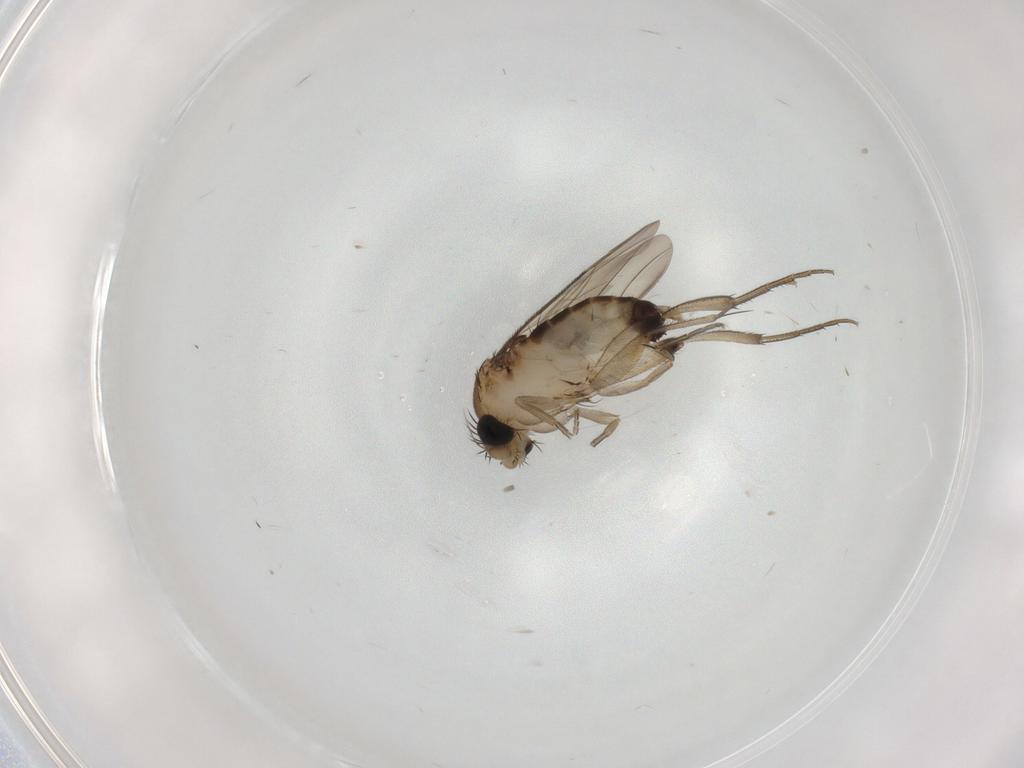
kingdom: Animalia
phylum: Arthropoda
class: Insecta
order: Diptera
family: Phoridae
